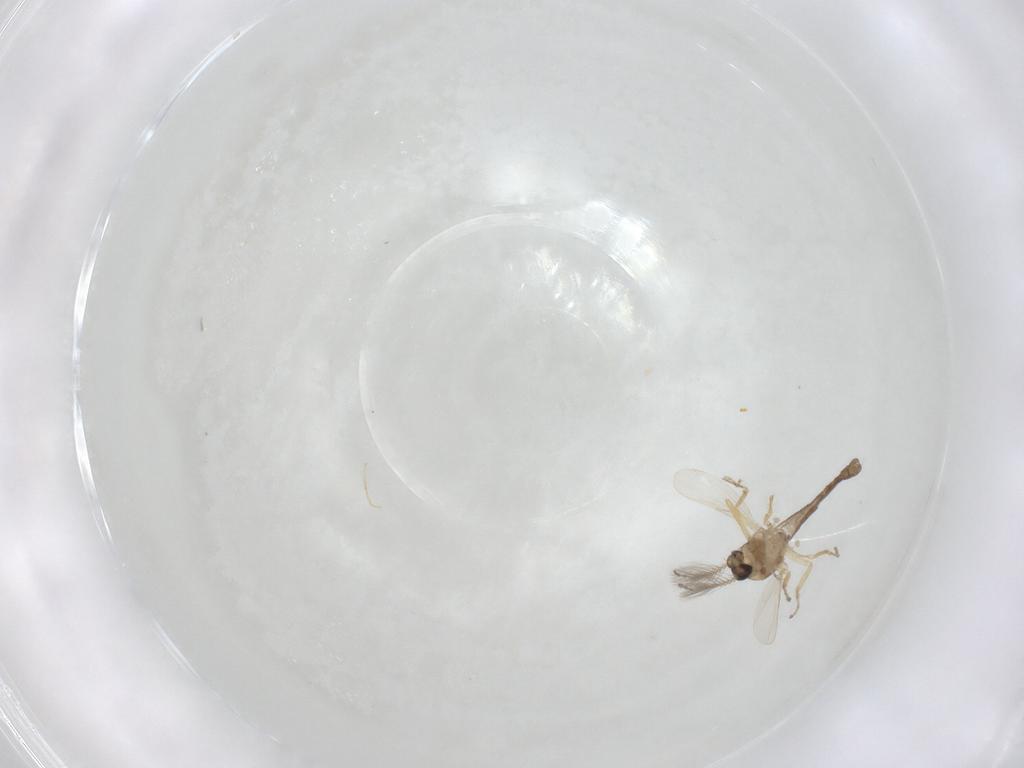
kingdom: Animalia
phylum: Arthropoda
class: Insecta
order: Diptera
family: Ceratopogonidae
